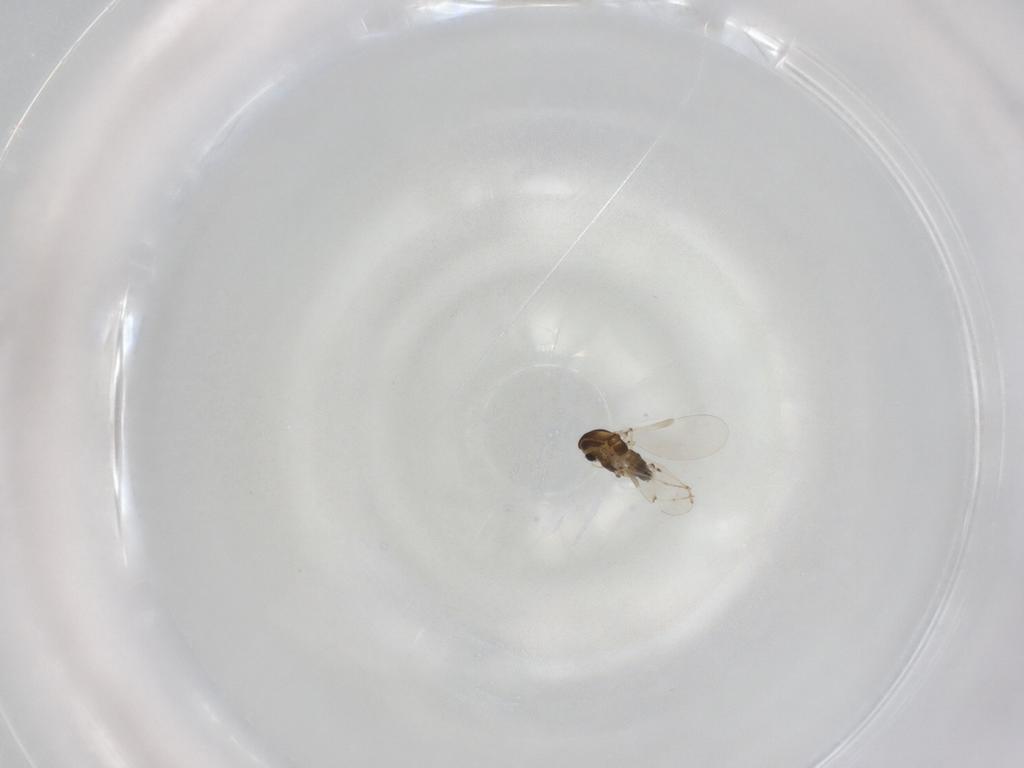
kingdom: Animalia
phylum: Arthropoda
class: Insecta
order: Diptera
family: Chironomidae
